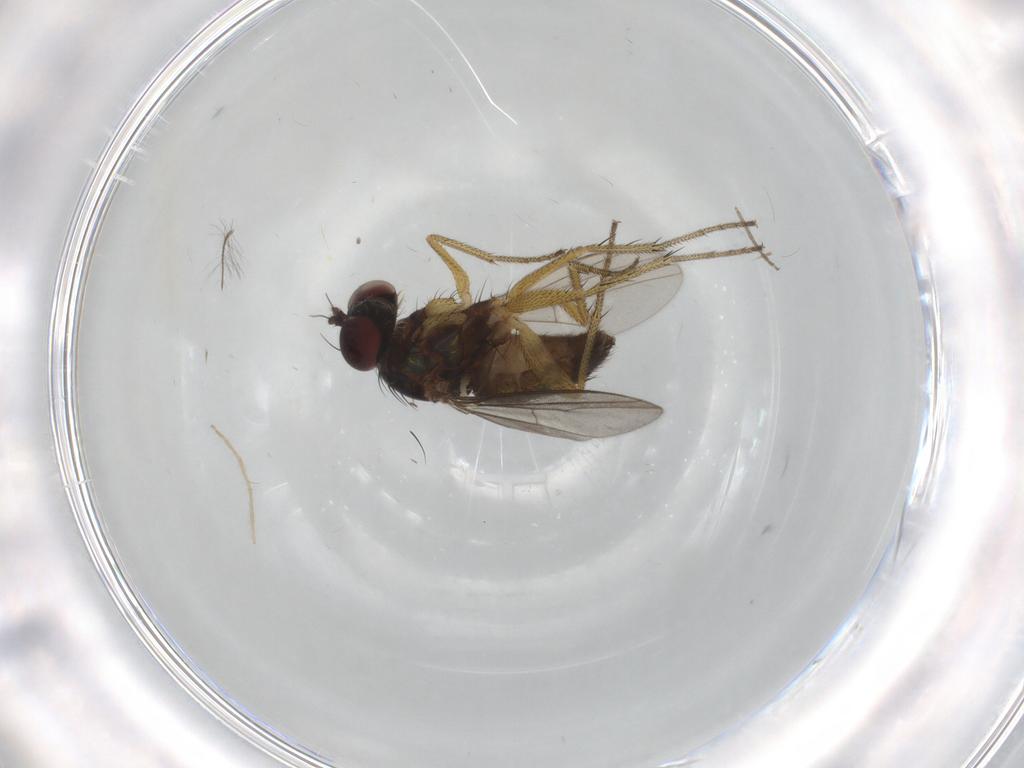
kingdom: Animalia
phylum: Arthropoda
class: Insecta
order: Diptera
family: Chironomidae
